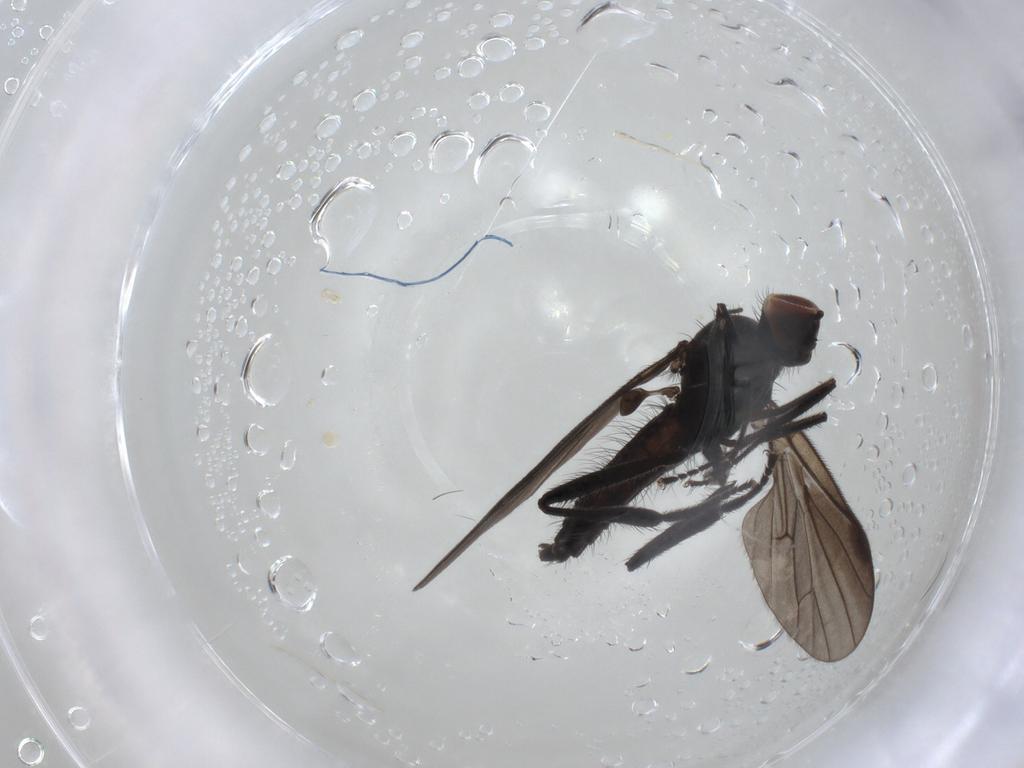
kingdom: Animalia
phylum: Arthropoda
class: Insecta
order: Diptera
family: Hybotidae
